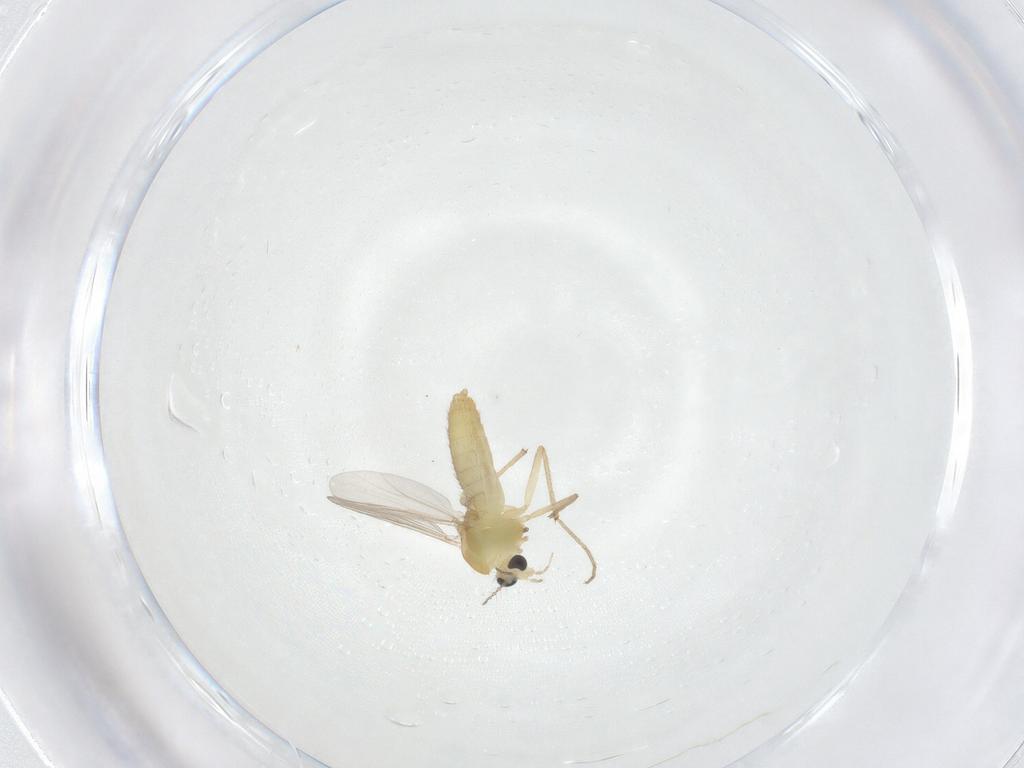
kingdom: Animalia
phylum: Arthropoda
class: Insecta
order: Diptera
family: Chironomidae
